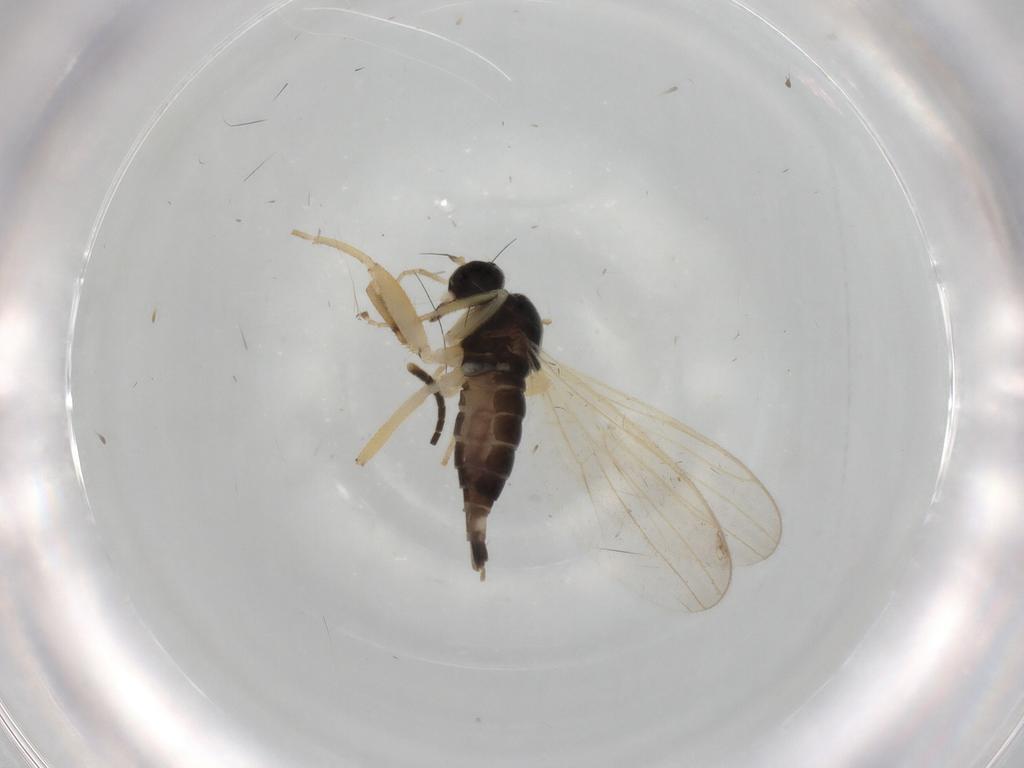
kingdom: Animalia
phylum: Arthropoda
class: Insecta
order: Diptera
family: Hybotidae
